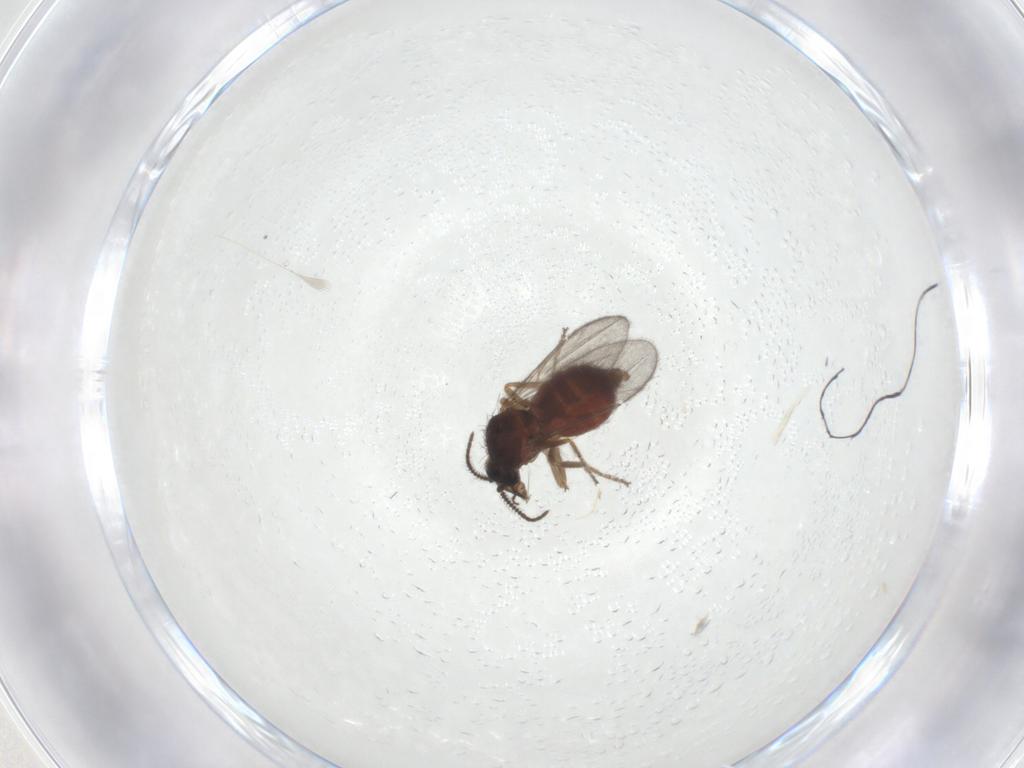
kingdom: Animalia
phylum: Arthropoda
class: Insecta
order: Diptera
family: Ceratopogonidae
